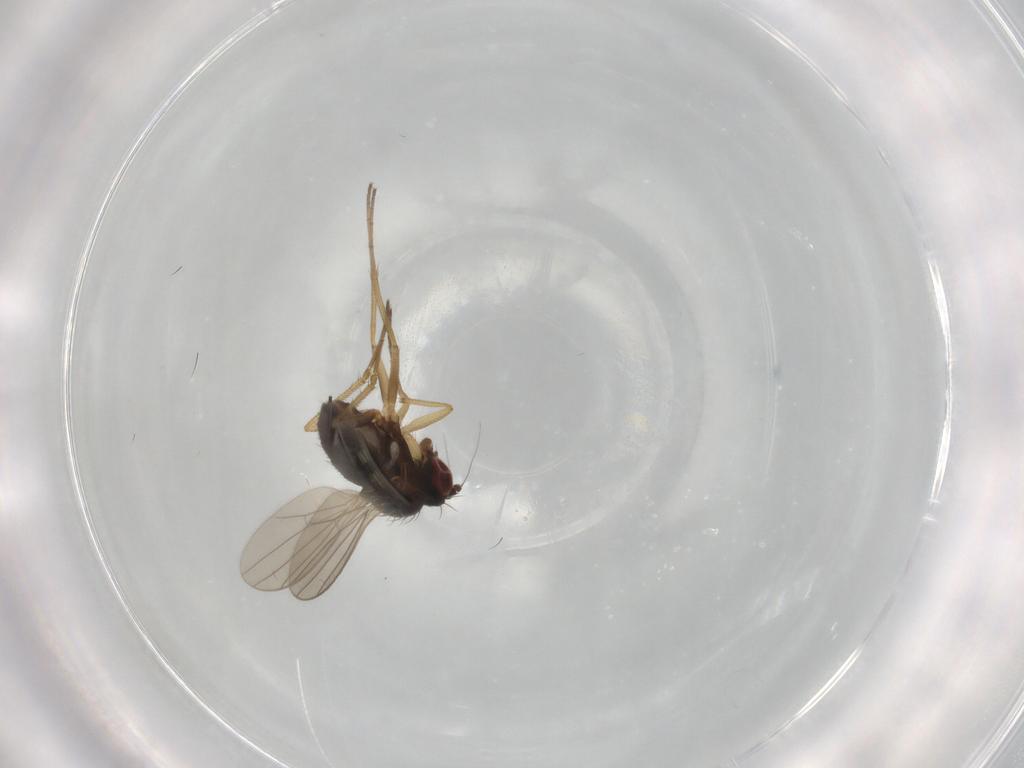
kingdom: Animalia
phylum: Arthropoda
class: Insecta
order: Diptera
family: Dolichopodidae
